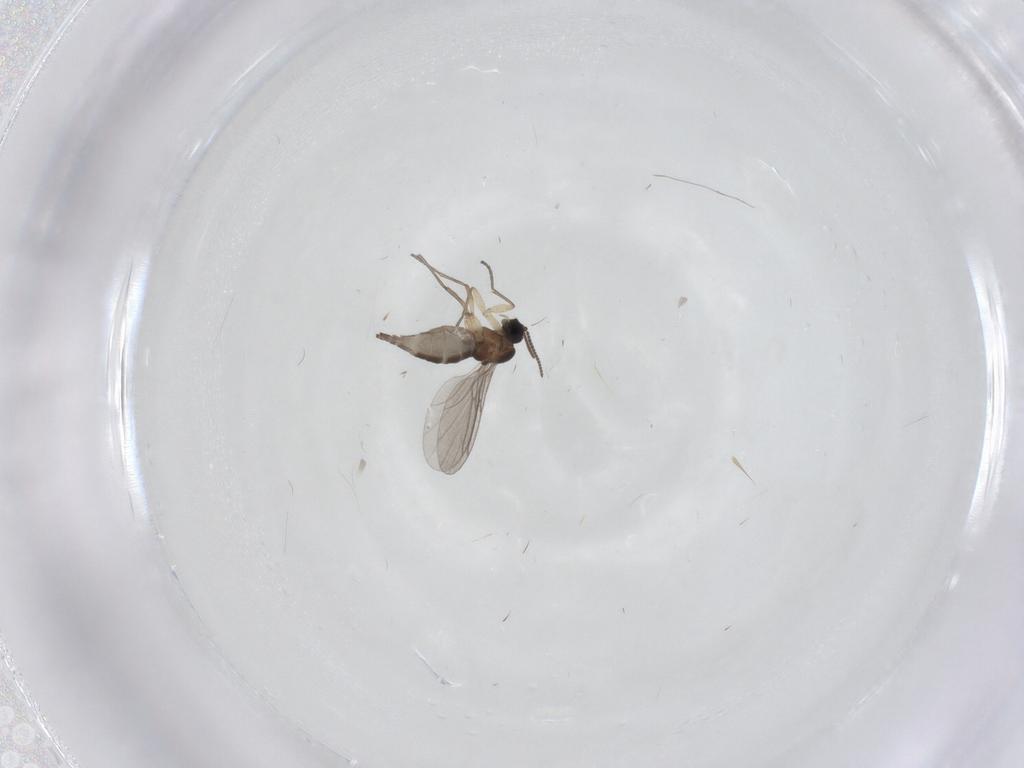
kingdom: Animalia
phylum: Arthropoda
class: Insecta
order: Diptera
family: Sciaridae
